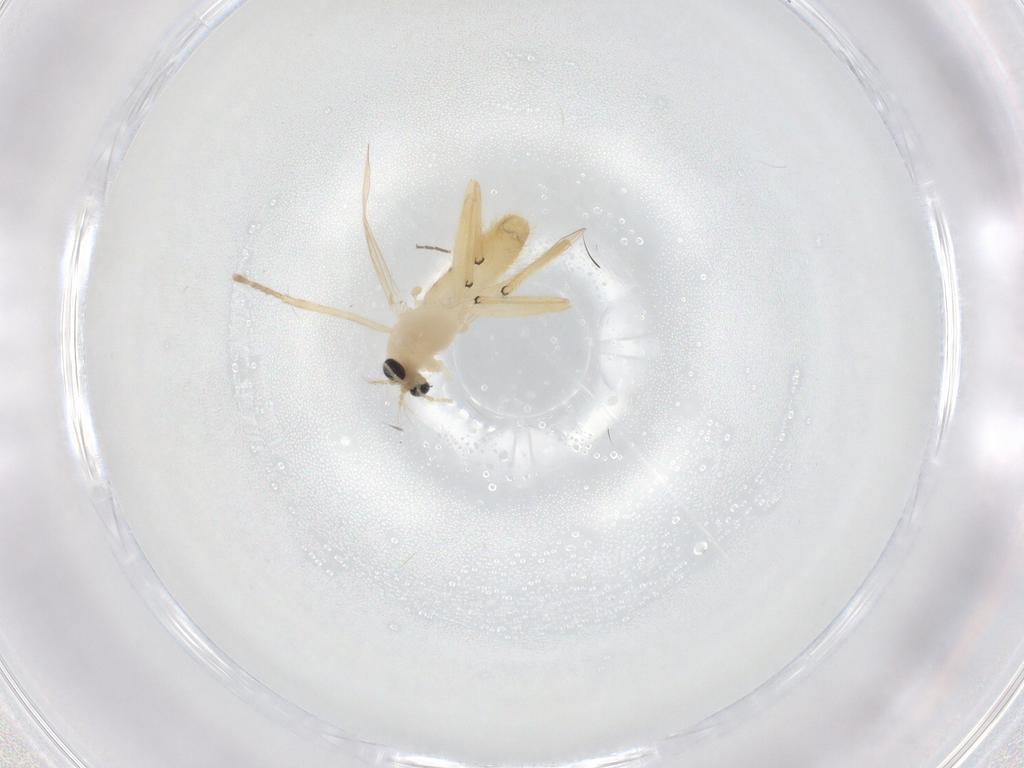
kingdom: Animalia
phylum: Arthropoda
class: Insecta
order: Diptera
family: Chironomidae
